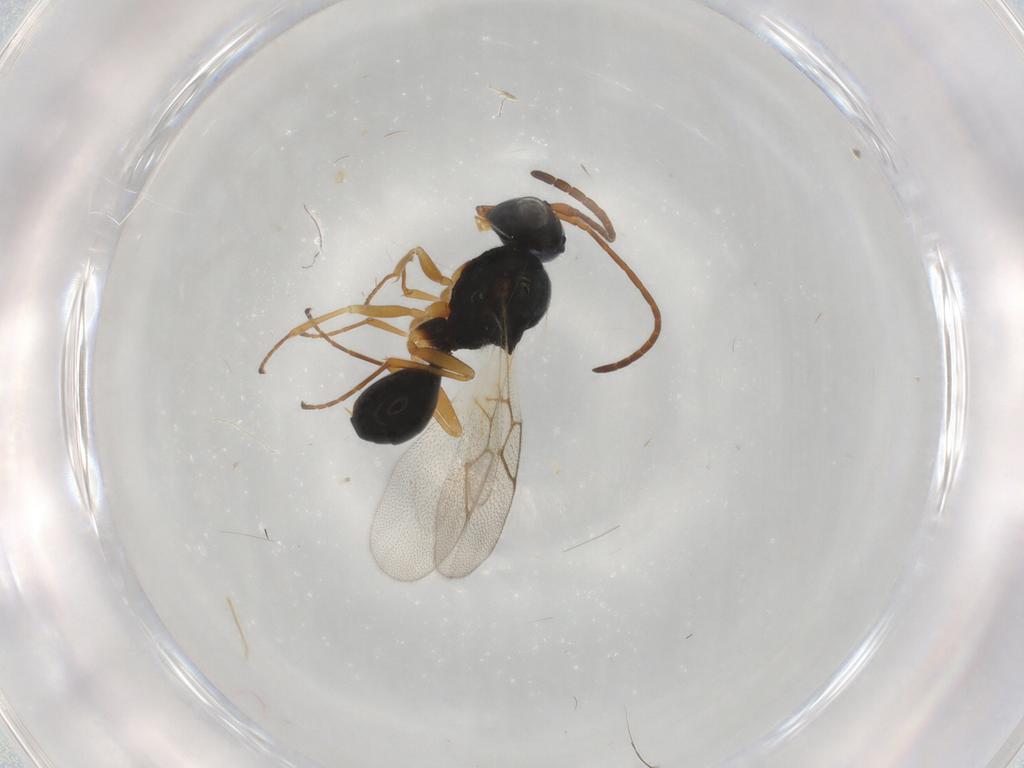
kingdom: Animalia
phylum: Arthropoda
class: Insecta
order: Hymenoptera
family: Figitidae
